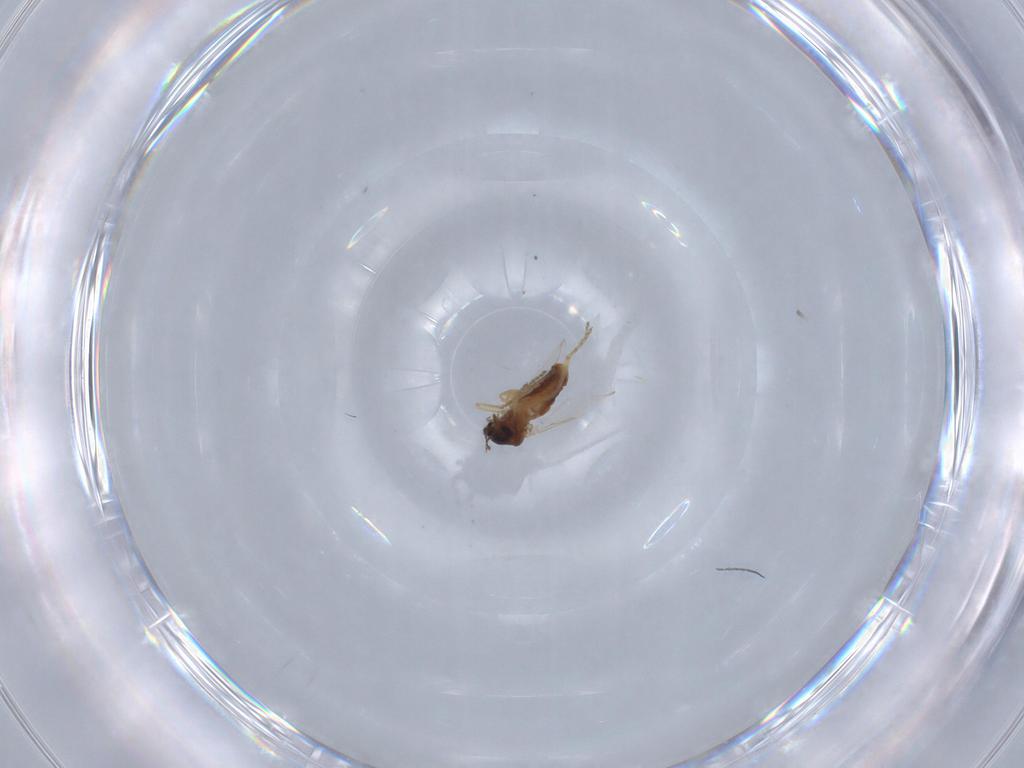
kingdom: Animalia
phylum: Arthropoda
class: Insecta
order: Diptera
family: Ceratopogonidae
